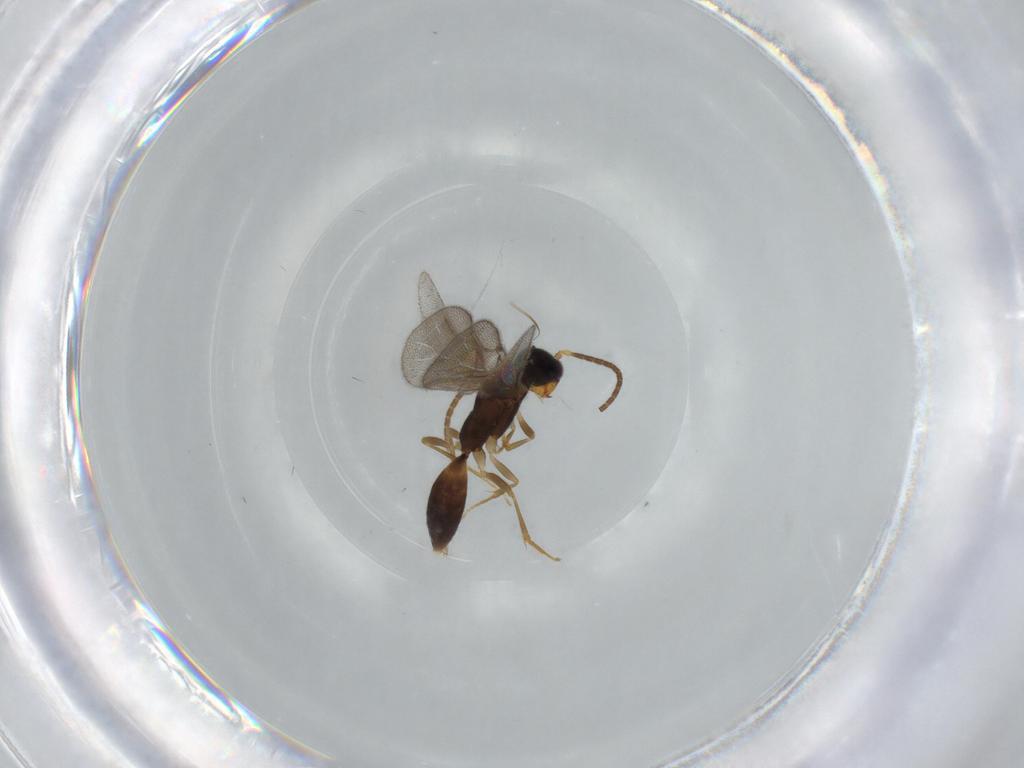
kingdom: Animalia
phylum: Arthropoda
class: Insecta
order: Hymenoptera
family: Bethylidae
